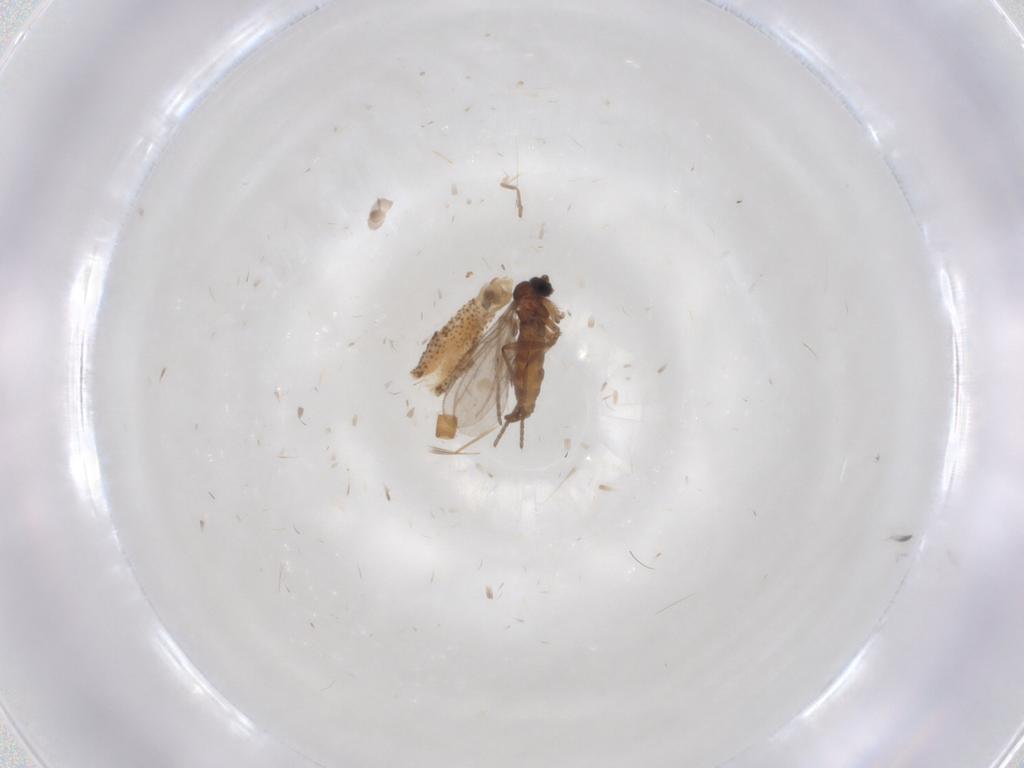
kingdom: Animalia
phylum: Arthropoda
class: Insecta
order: Diptera
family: Chaoboridae
